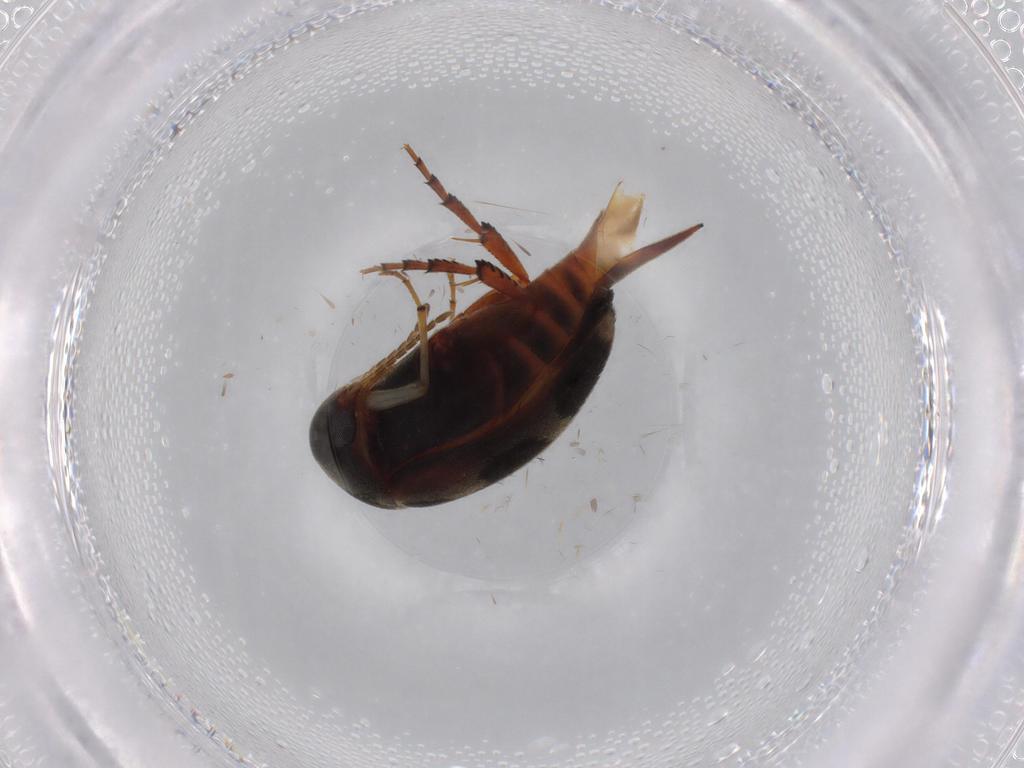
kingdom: Animalia
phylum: Arthropoda
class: Insecta
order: Coleoptera
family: Mordellidae
